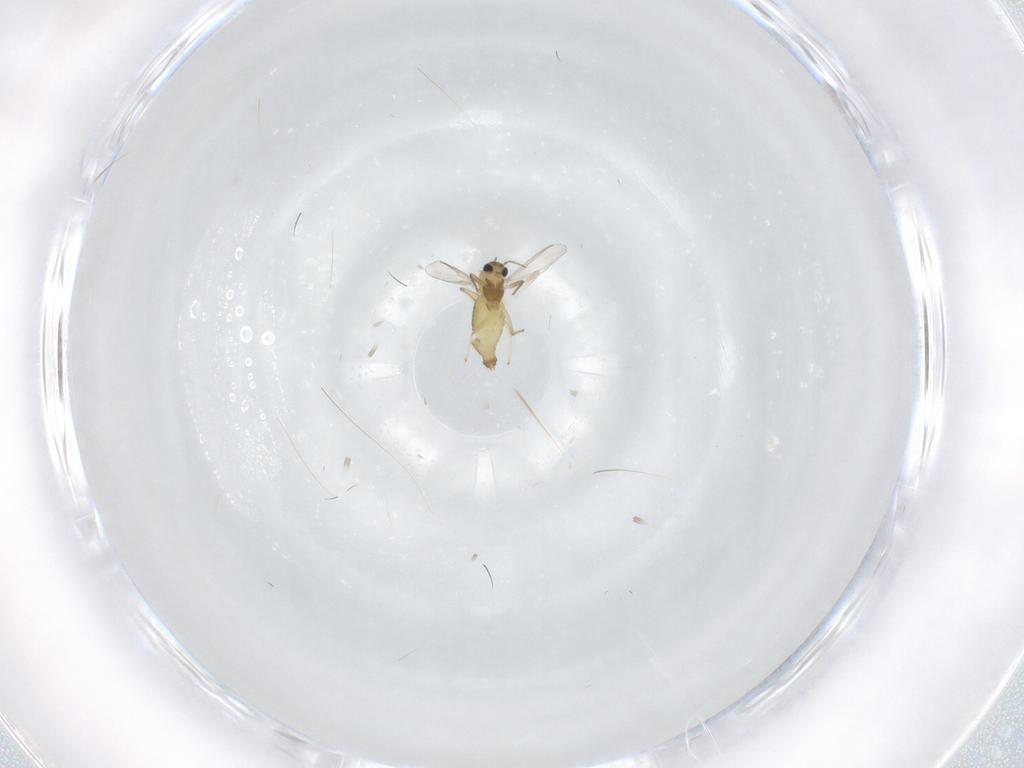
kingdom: Animalia
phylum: Arthropoda
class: Insecta
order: Diptera
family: Chironomidae
